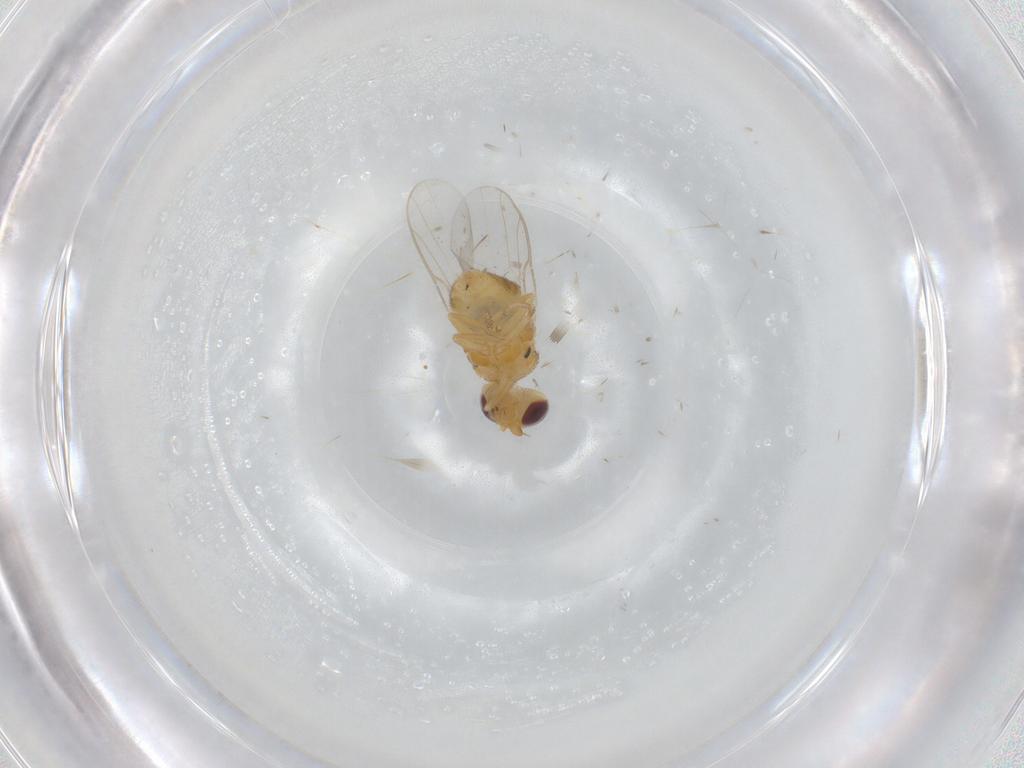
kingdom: Animalia
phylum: Arthropoda
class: Insecta
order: Diptera
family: Chloropidae
